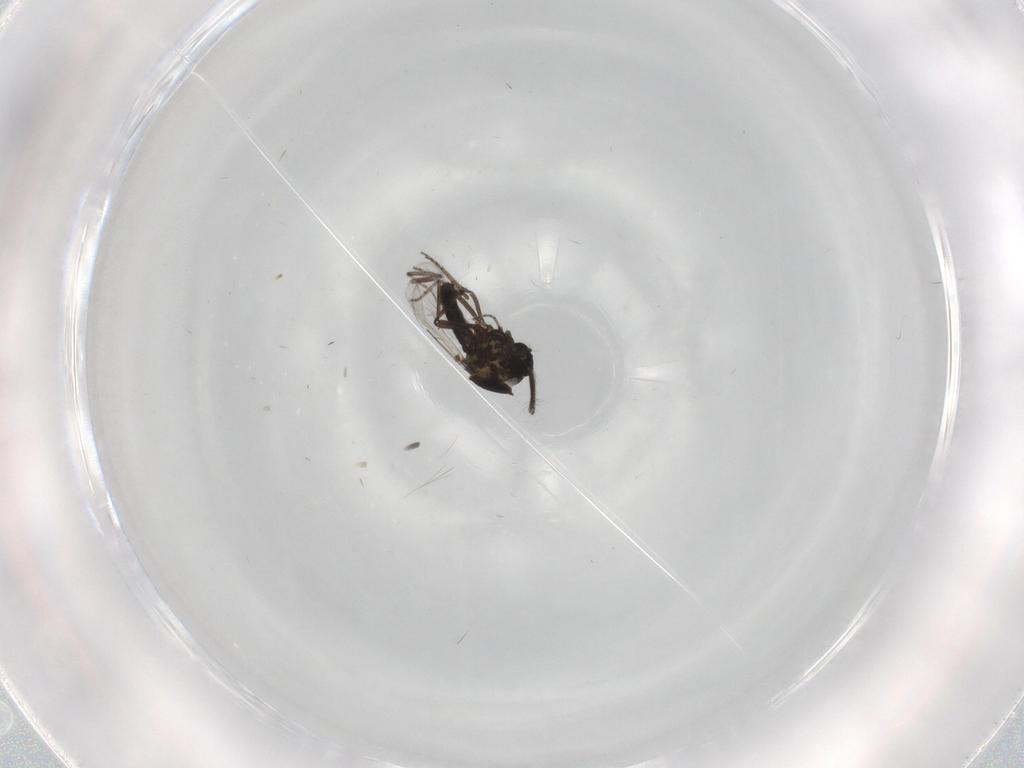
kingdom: Animalia
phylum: Arthropoda
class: Insecta
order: Diptera
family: Ceratopogonidae
